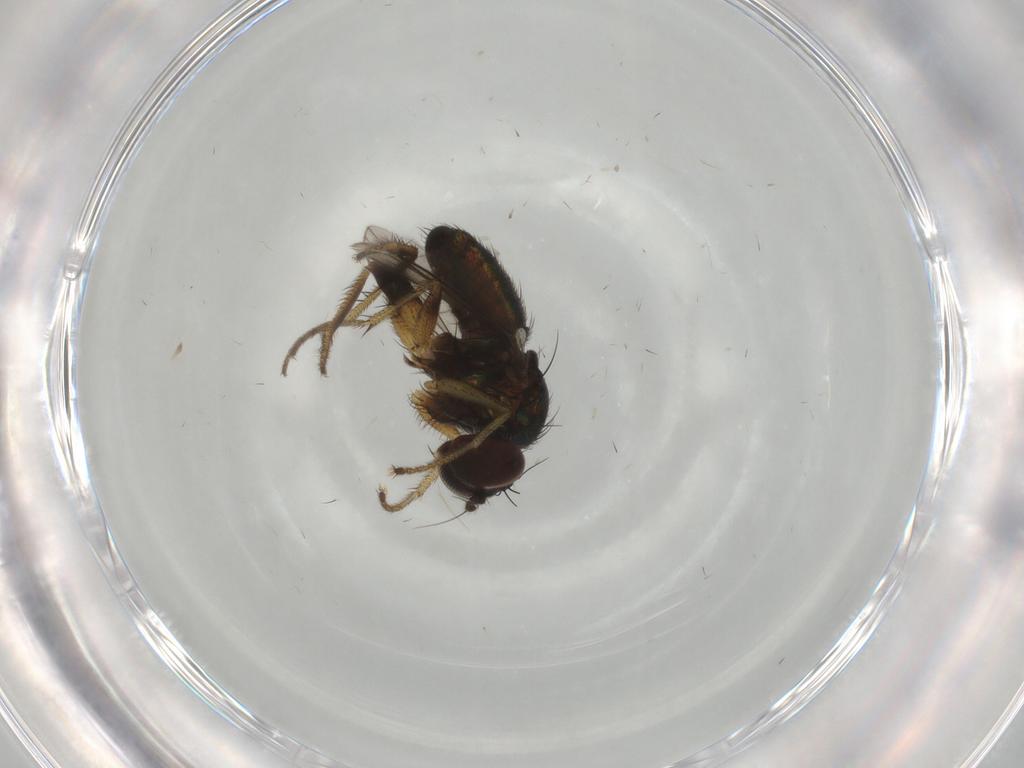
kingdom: Animalia
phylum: Arthropoda
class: Insecta
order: Diptera
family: Dolichopodidae
